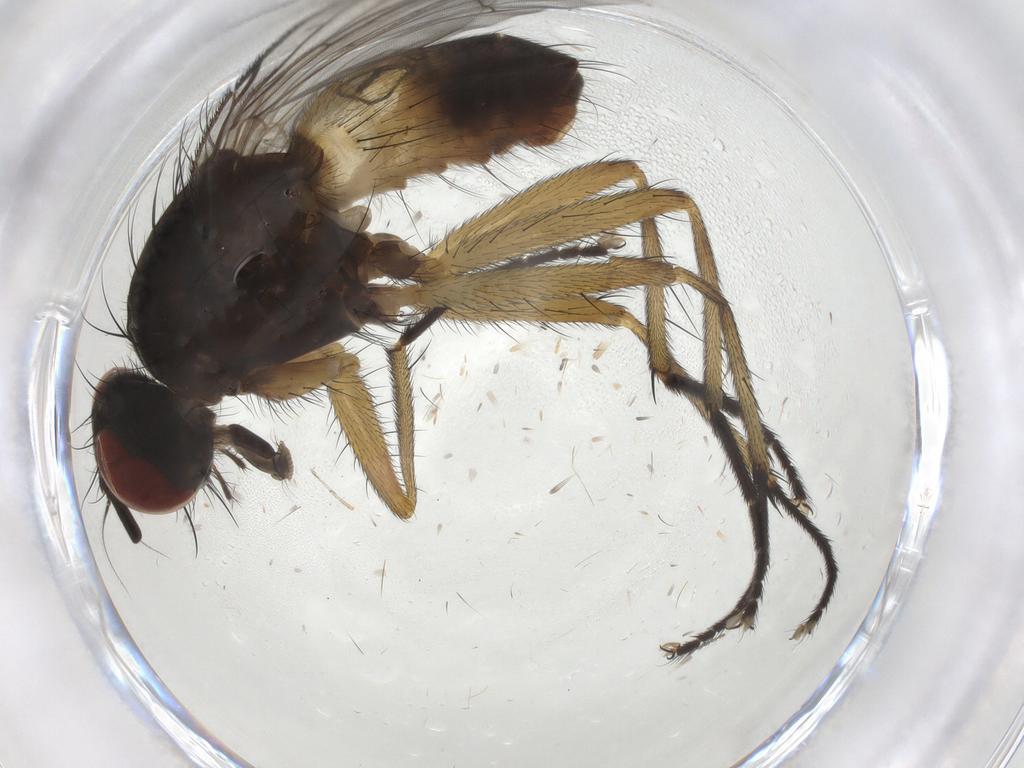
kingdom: Animalia
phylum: Arthropoda
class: Insecta
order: Diptera
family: Muscidae
